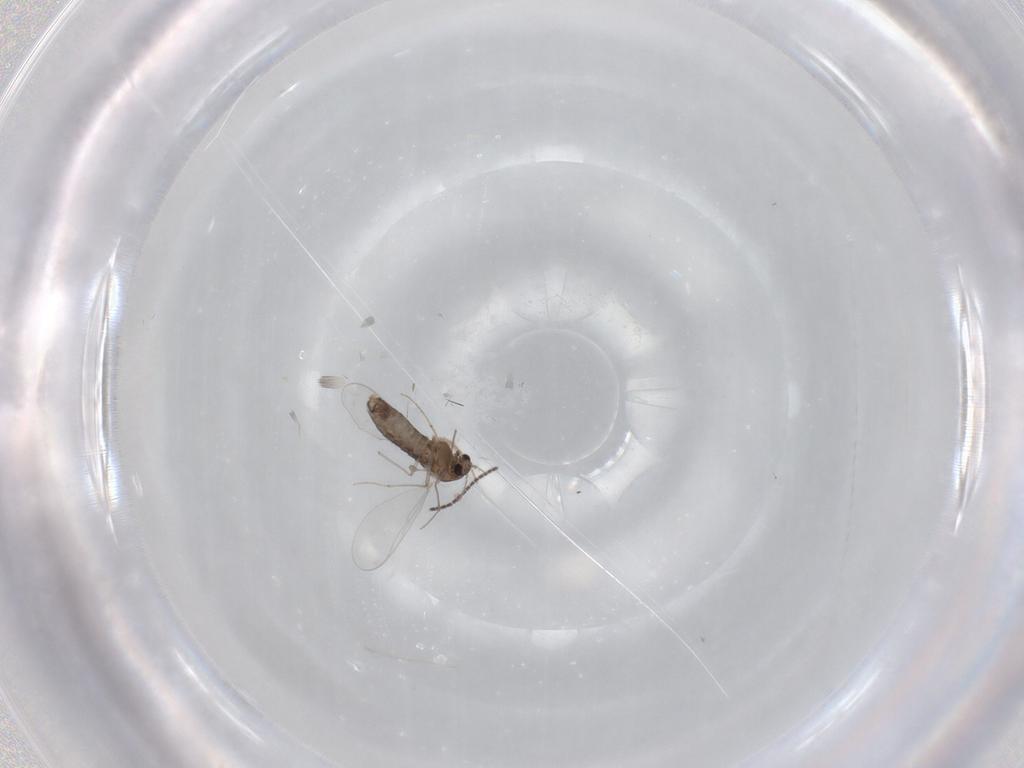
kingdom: Animalia
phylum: Arthropoda
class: Insecta
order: Diptera
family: Chironomidae
